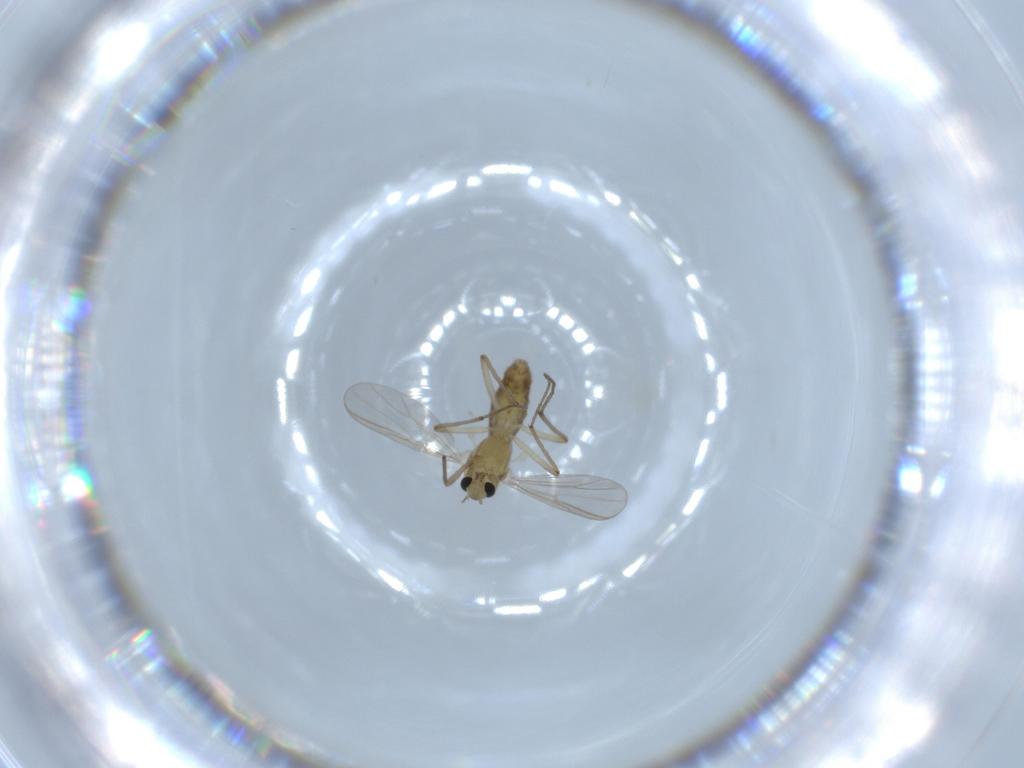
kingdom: Animalia
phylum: Arthropoda
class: Insecta
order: Diptera
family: Chironomidae
